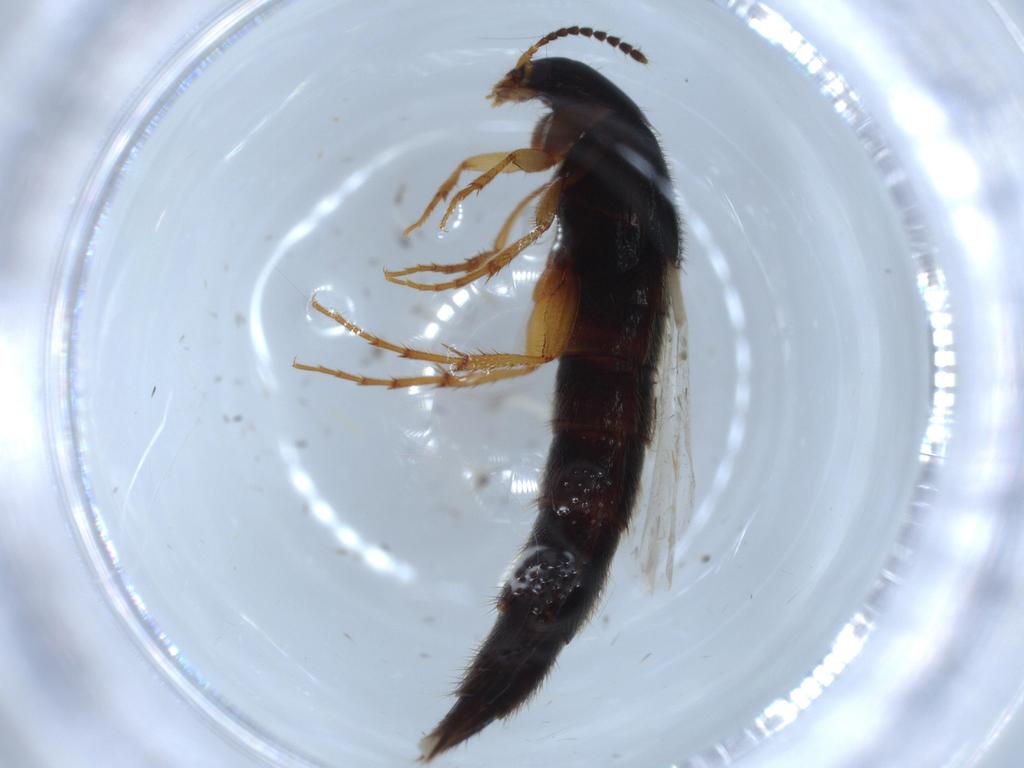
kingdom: Animalia
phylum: Arthropoda
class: Insecta
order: Coleoptera
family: Staphylinidae
